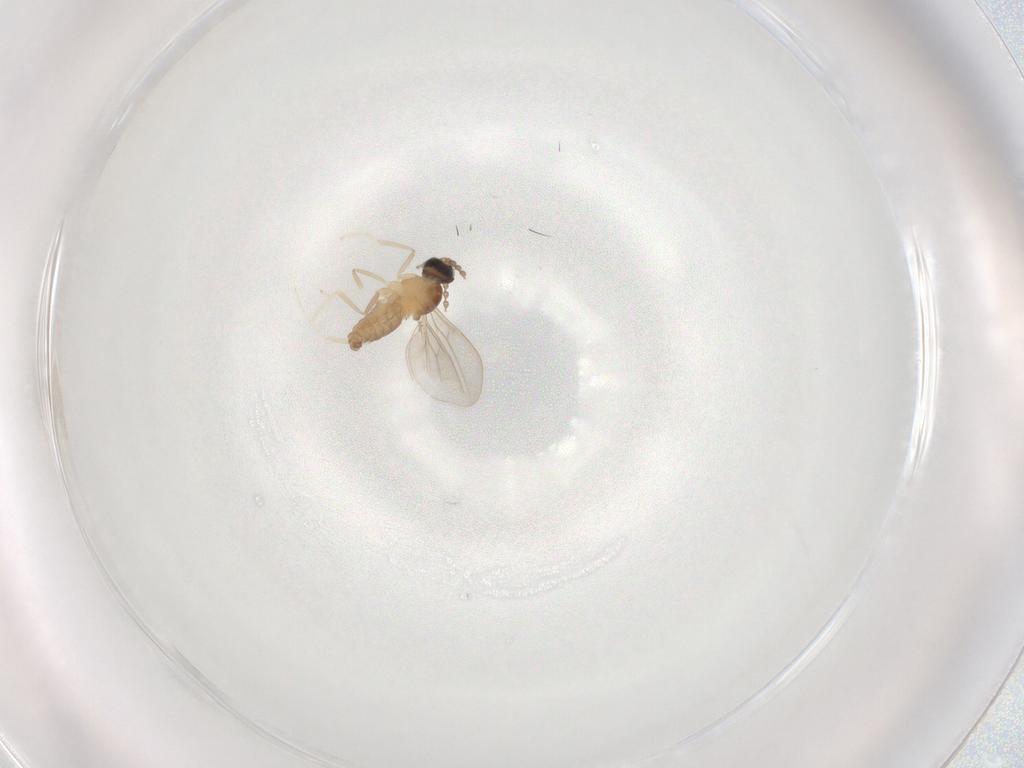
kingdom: Animalia
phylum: Arthropoda
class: Insecta
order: Diptera
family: Cecidomyiidae
